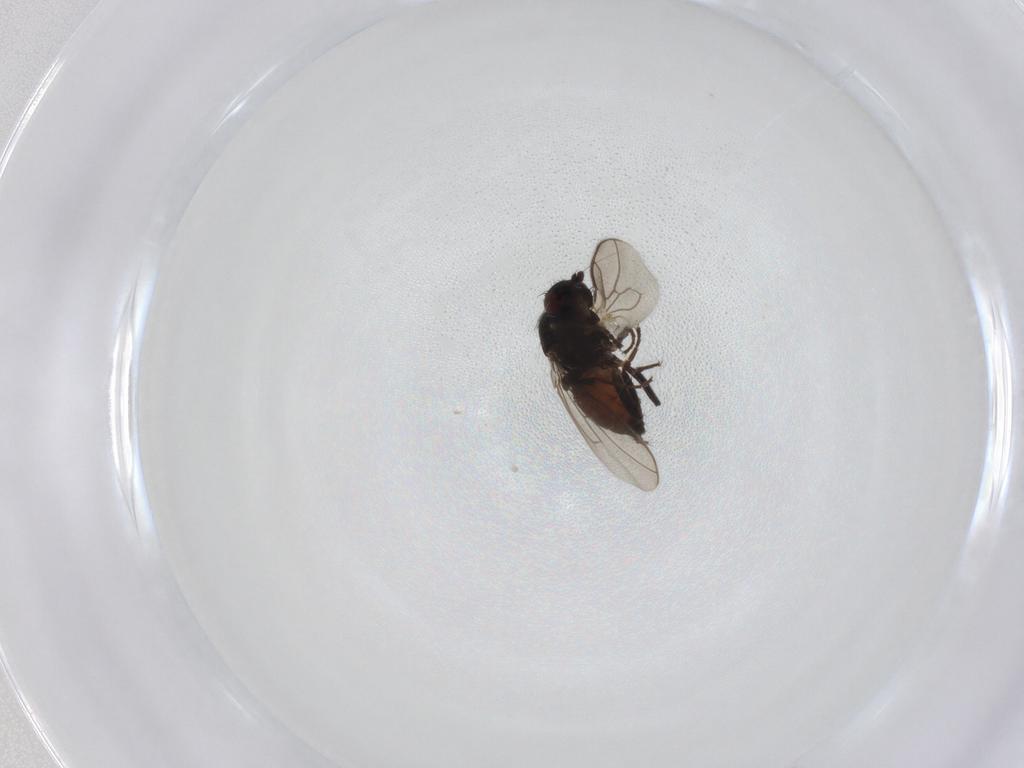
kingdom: Animalia
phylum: Arthropoda
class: Insecta
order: Diptera
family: Sphaeroceridae
